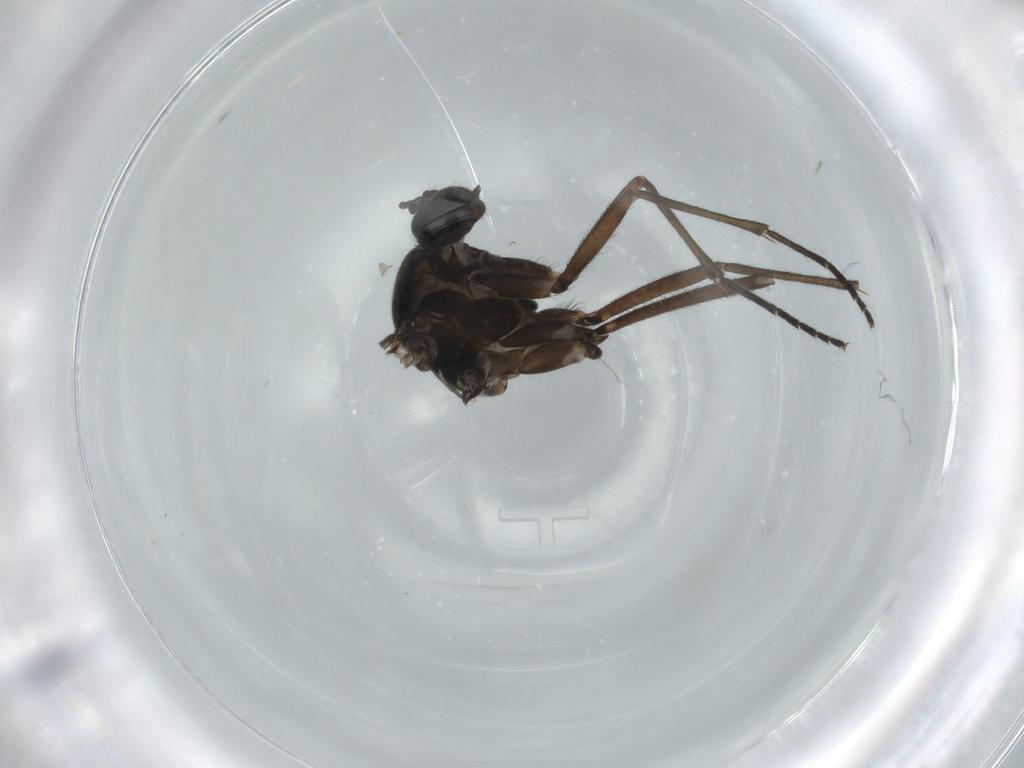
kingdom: Animalia
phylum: Arthropoda
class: Insecta
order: Diptera
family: Sciaridae
